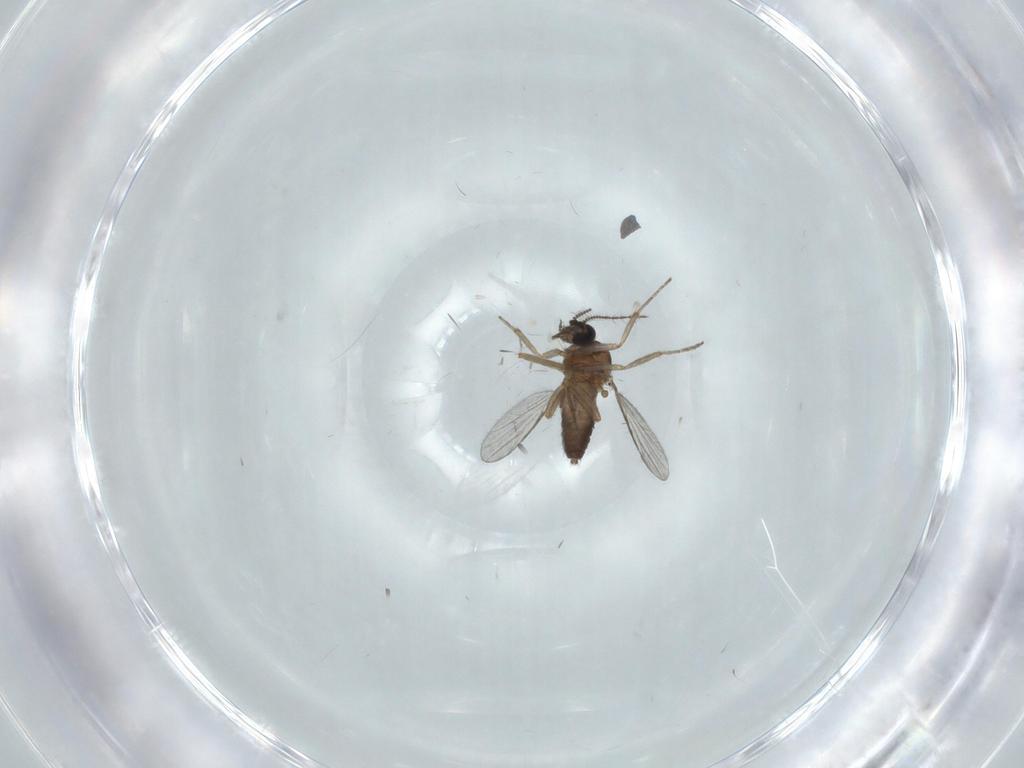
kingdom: Animalia
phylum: Arthropoda
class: Insecta
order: Diptera
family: Ceratopogonidae
